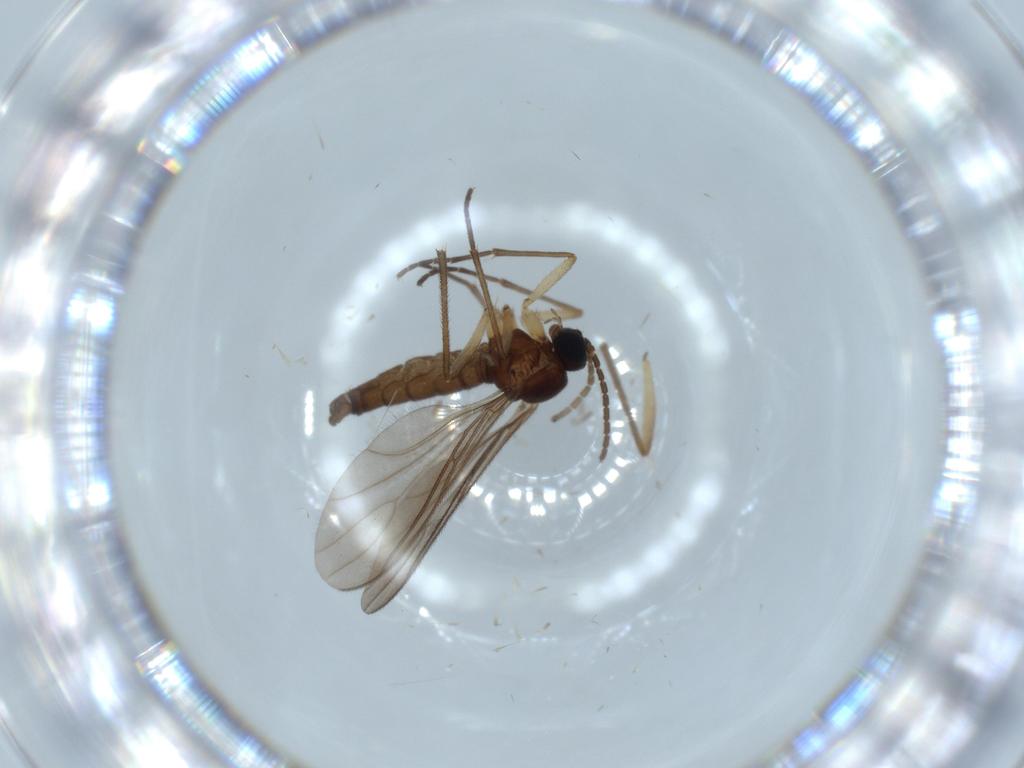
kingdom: Animalia
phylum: Arthropoda
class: Insecta
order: Diptera
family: Sciaridae
